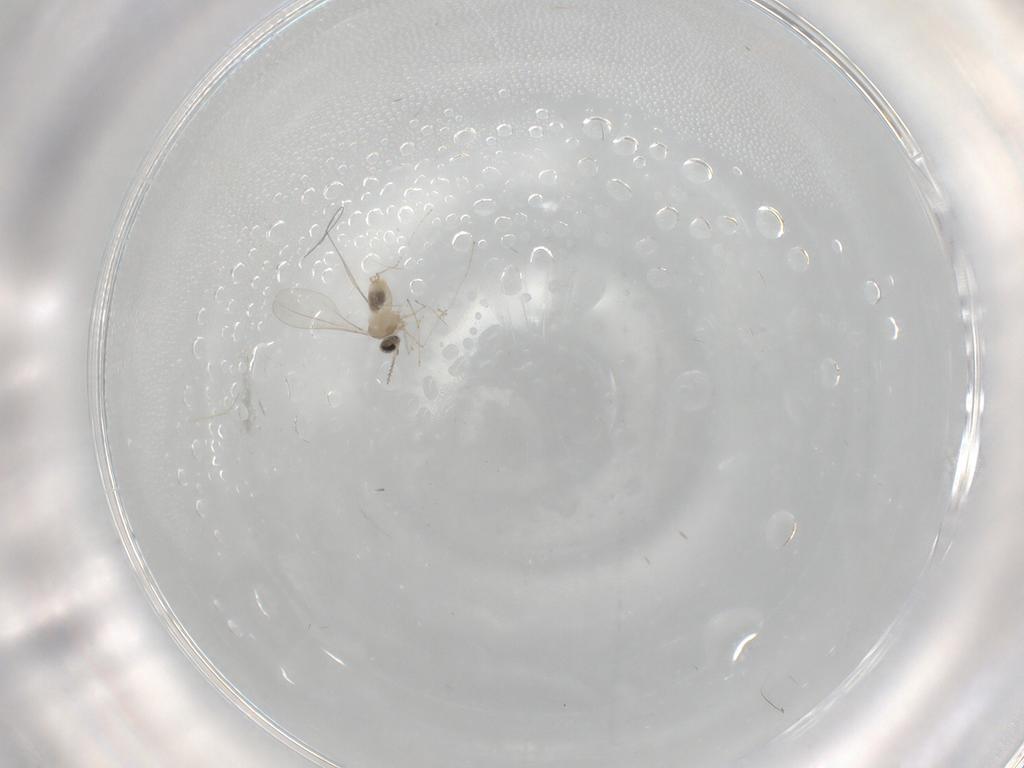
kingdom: Animalia
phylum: Arthropoda
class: Insecta
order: Diptera
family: Cecidomyiidae
